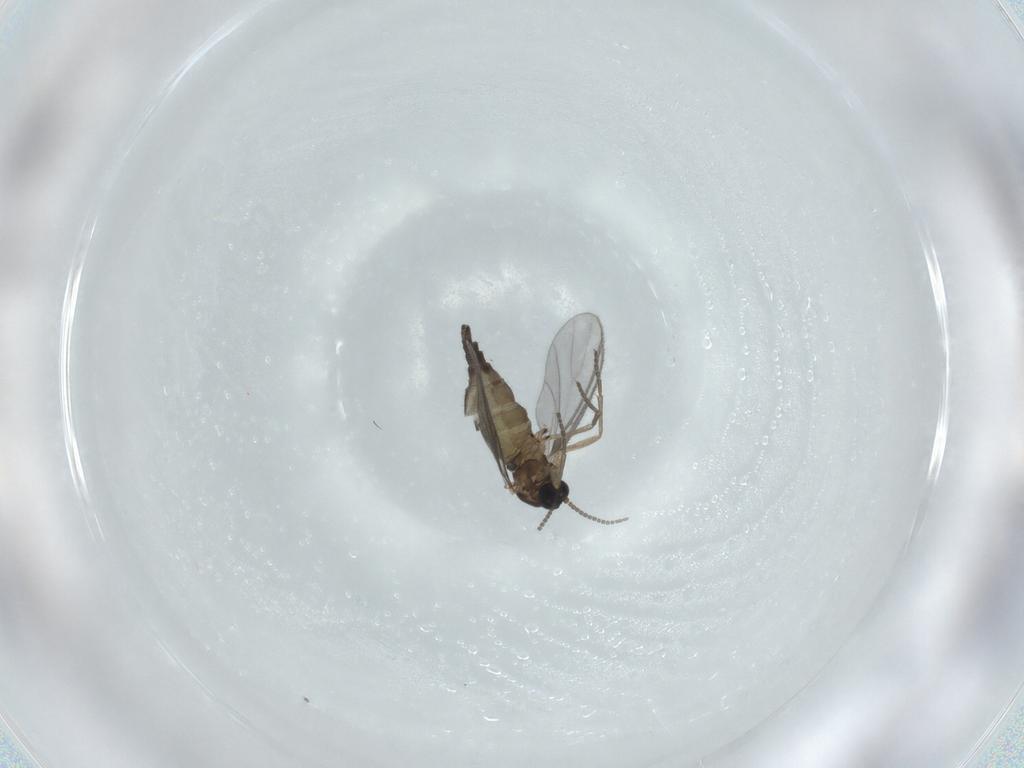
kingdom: Animalia
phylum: Arthropoda
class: Insecta
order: Diptera
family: Sciaridae
